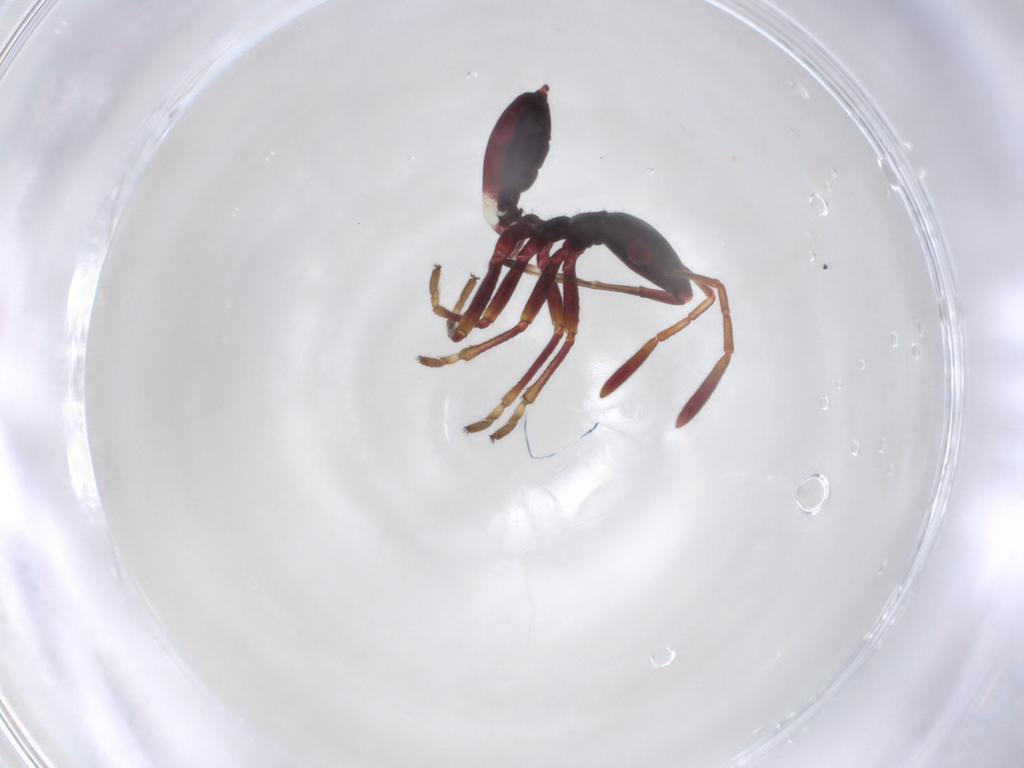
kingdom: Animalia
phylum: Arthropoda
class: Insecta
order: Hemiptera
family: Alydidae
